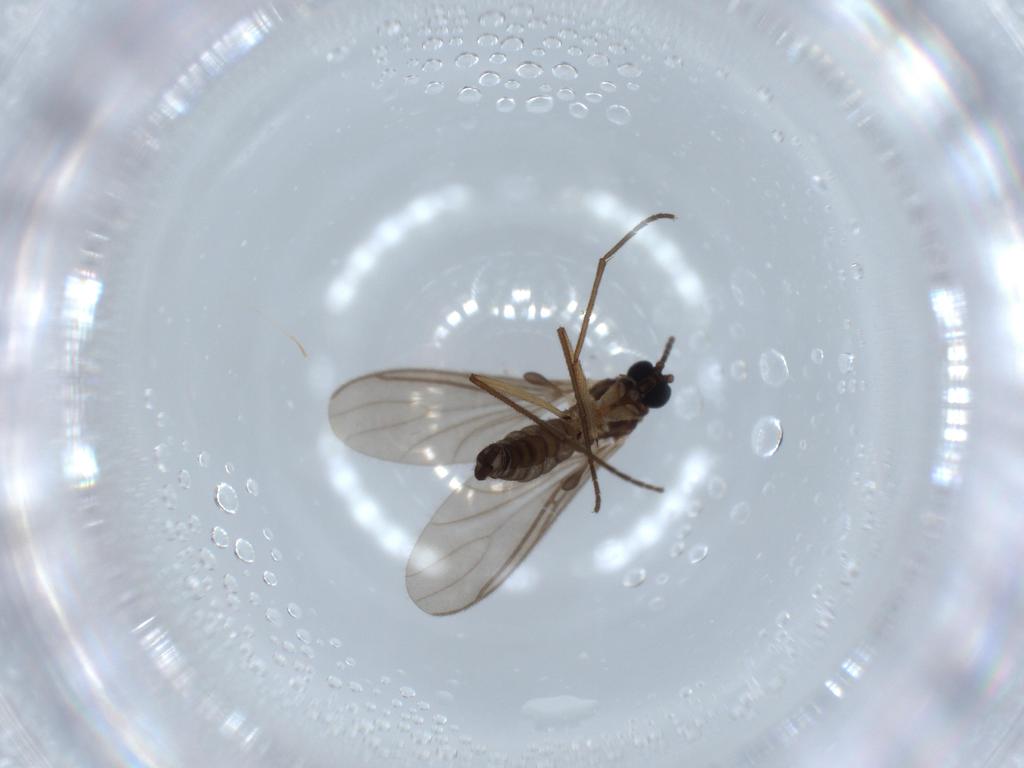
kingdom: Animalia
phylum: Arthropoda
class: Insecta
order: Diptera
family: Sciaridae
